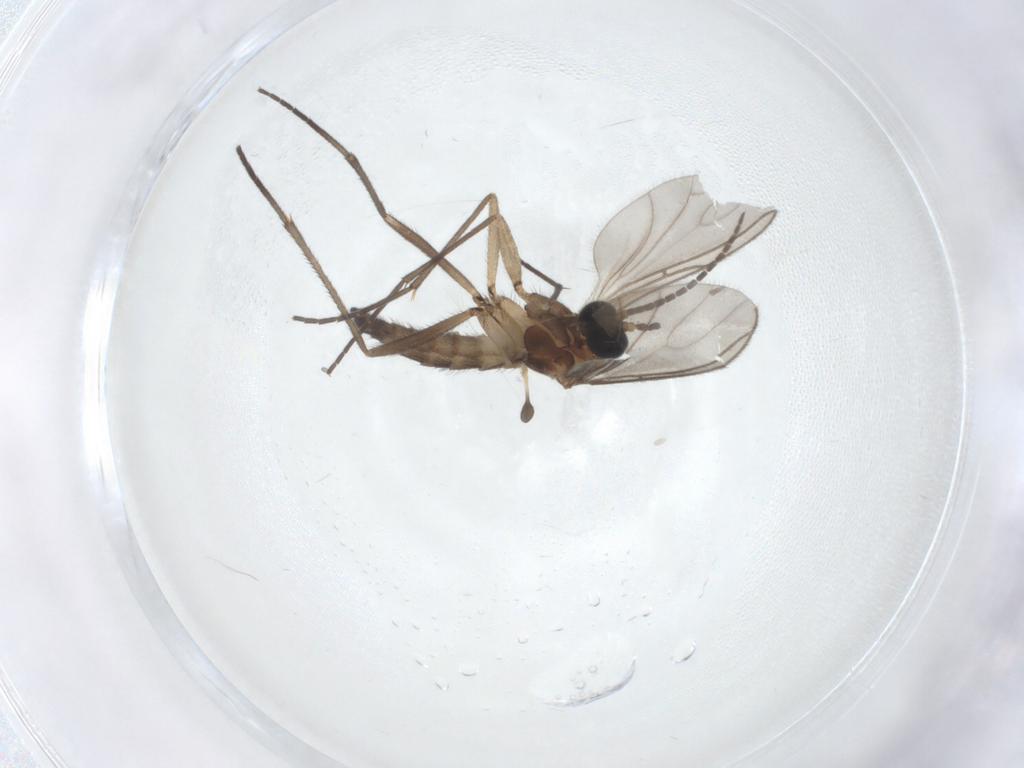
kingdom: Animalia
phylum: Arthropoda
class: Insecta
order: Diptera
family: Sciaridae
